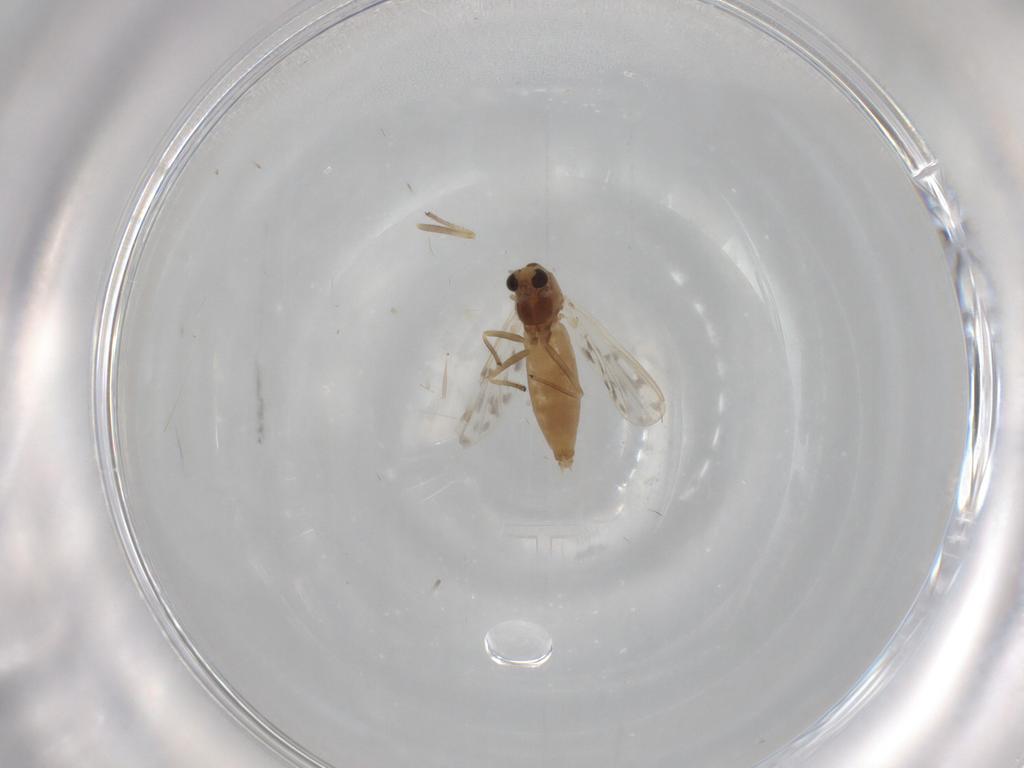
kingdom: Animalia
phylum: Arthropoda
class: Insecta
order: Diptera
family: Chironomidae
